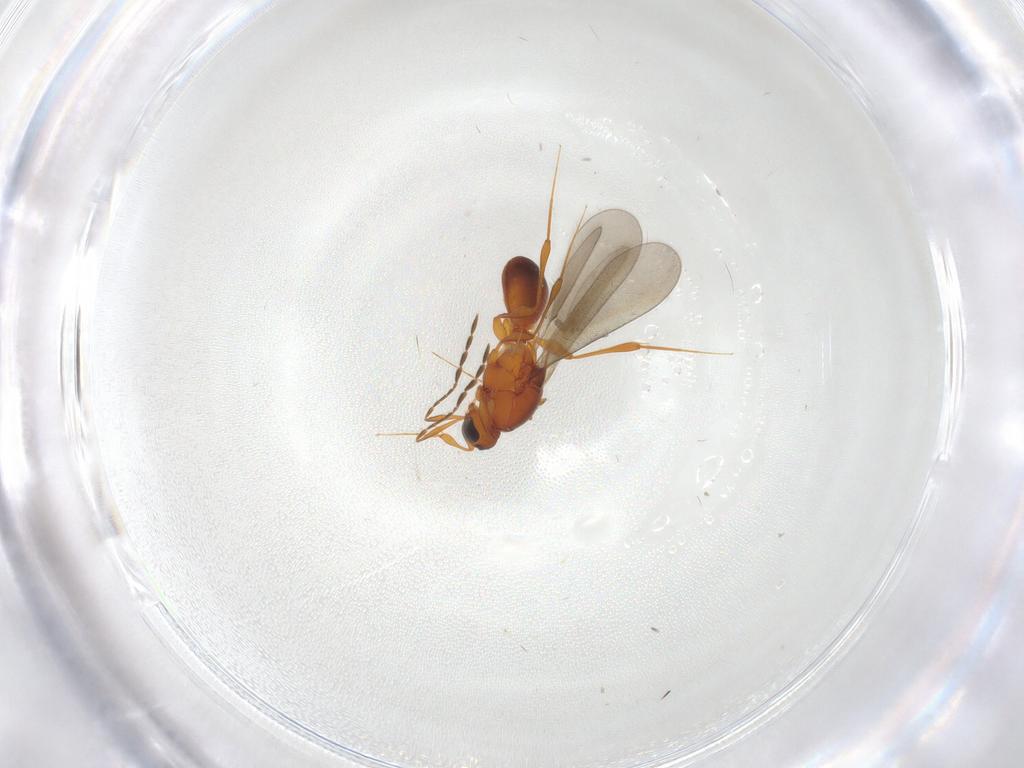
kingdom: Animalia
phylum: Arthropoda
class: Insecta
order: Hymenoptera
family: Platygastridae
